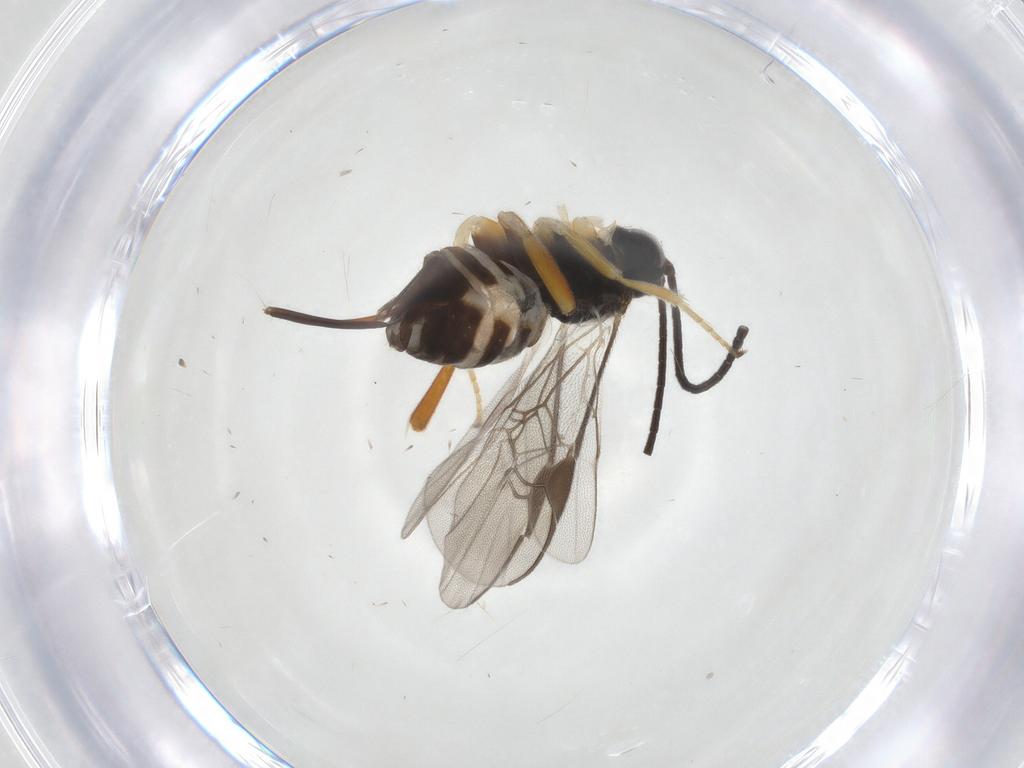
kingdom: Animalia
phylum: Arthropoda
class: Insecta
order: Hymenoptera
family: Braconidae
